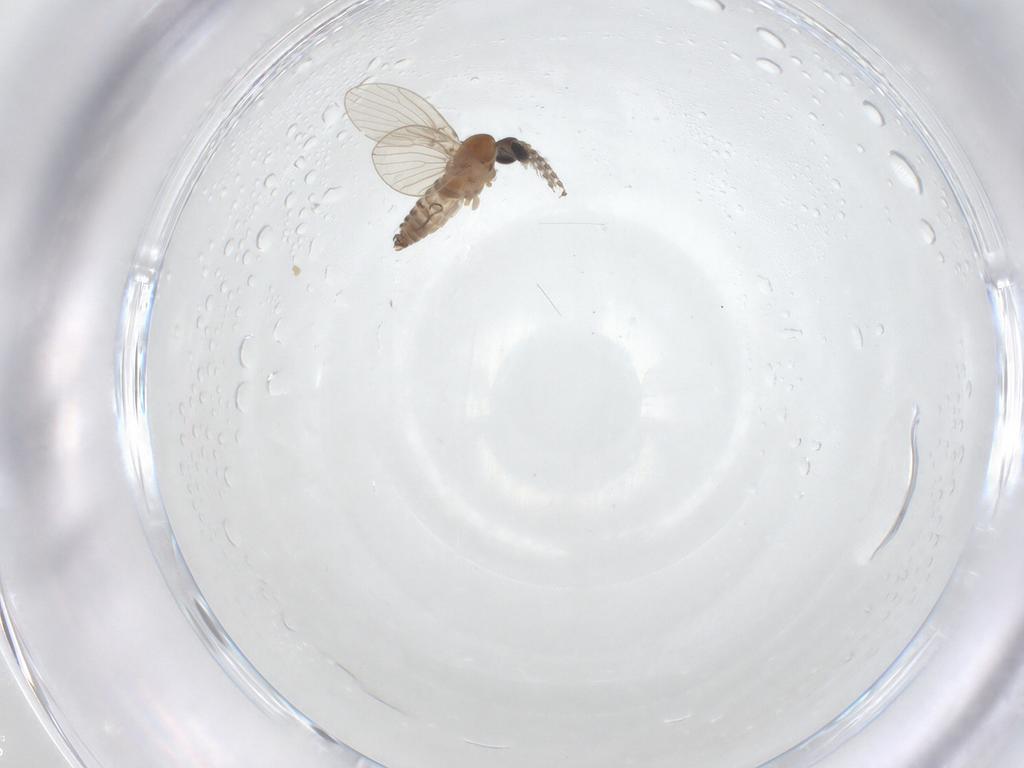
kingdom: Animalia
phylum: Arthropoda
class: Insecta
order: Diptera
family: Sciaridae
